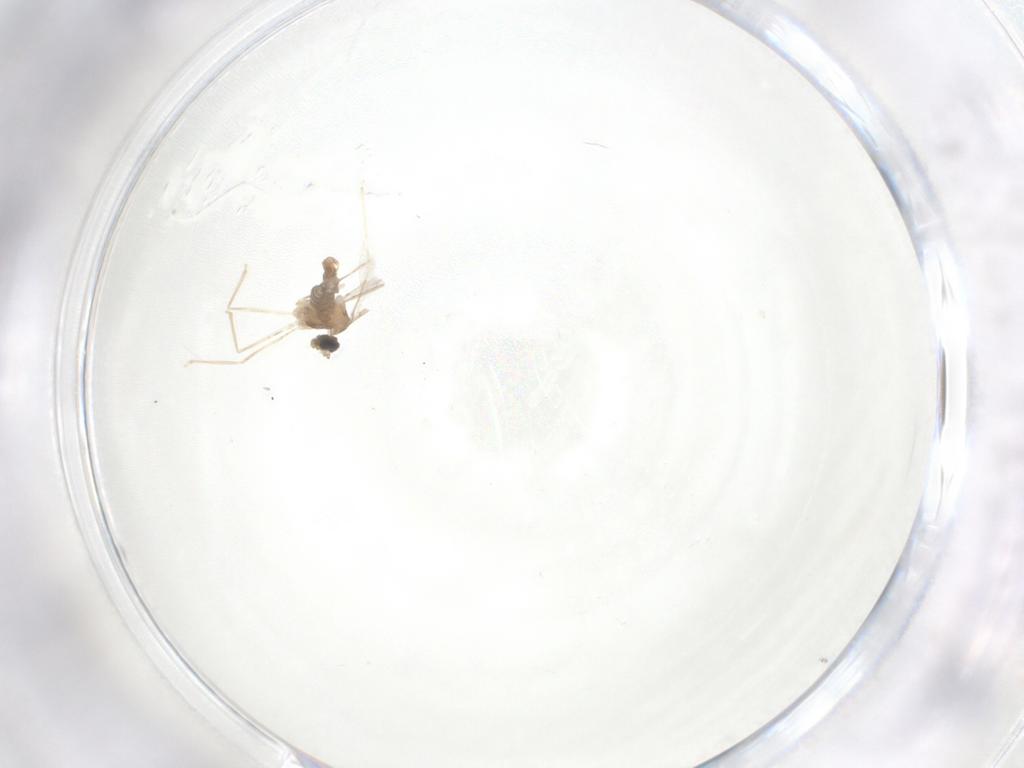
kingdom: Animalia
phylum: Arthropoda
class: Insecta
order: Diptera
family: Cecidomyiidae
